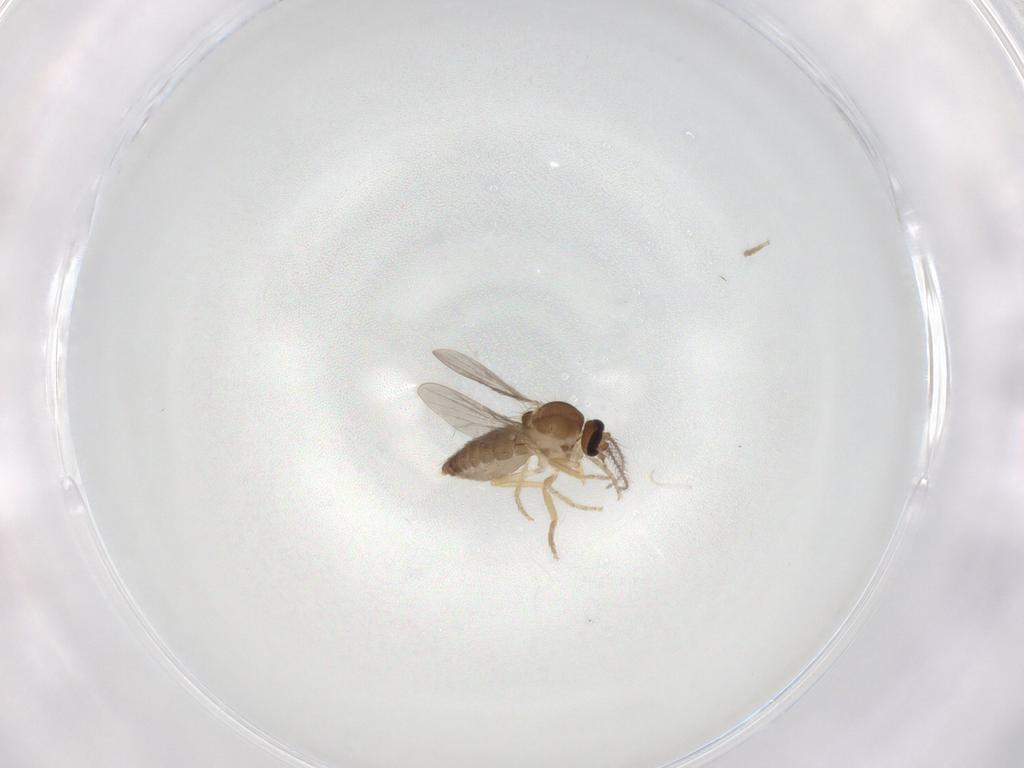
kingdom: Animalia
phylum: Arthropoda
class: Insecta
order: Diptera
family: Ceratopogonidae
